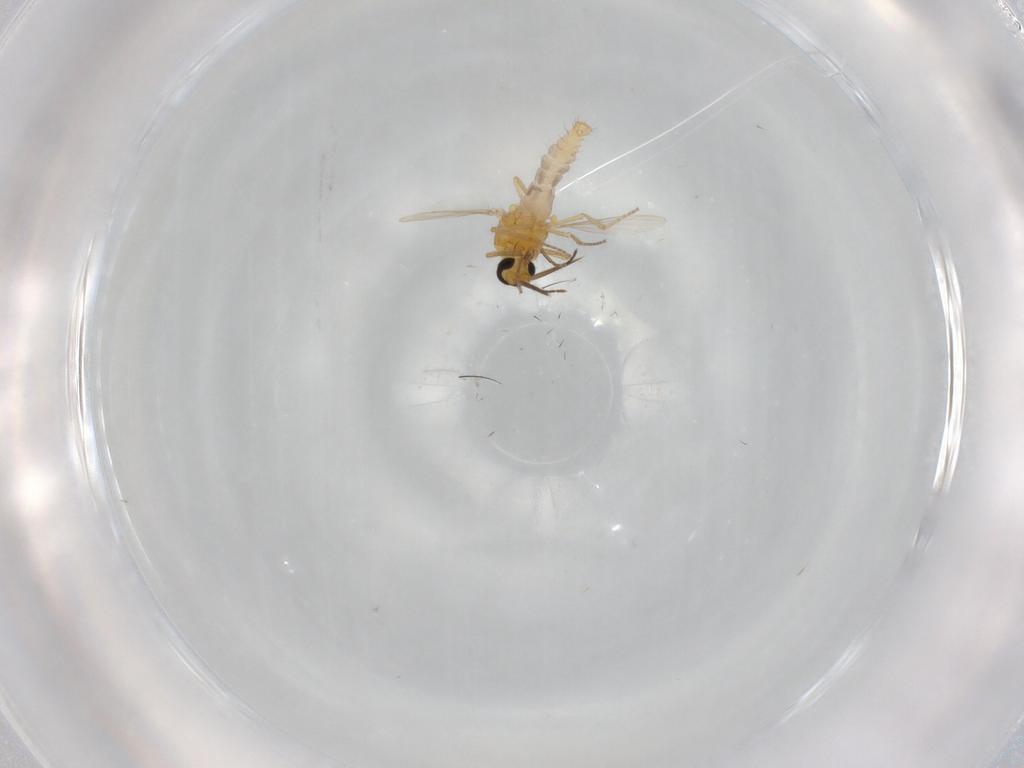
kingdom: Animalia
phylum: Arthropoda
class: Insecta
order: Diptera
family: Ceratopogonidae
